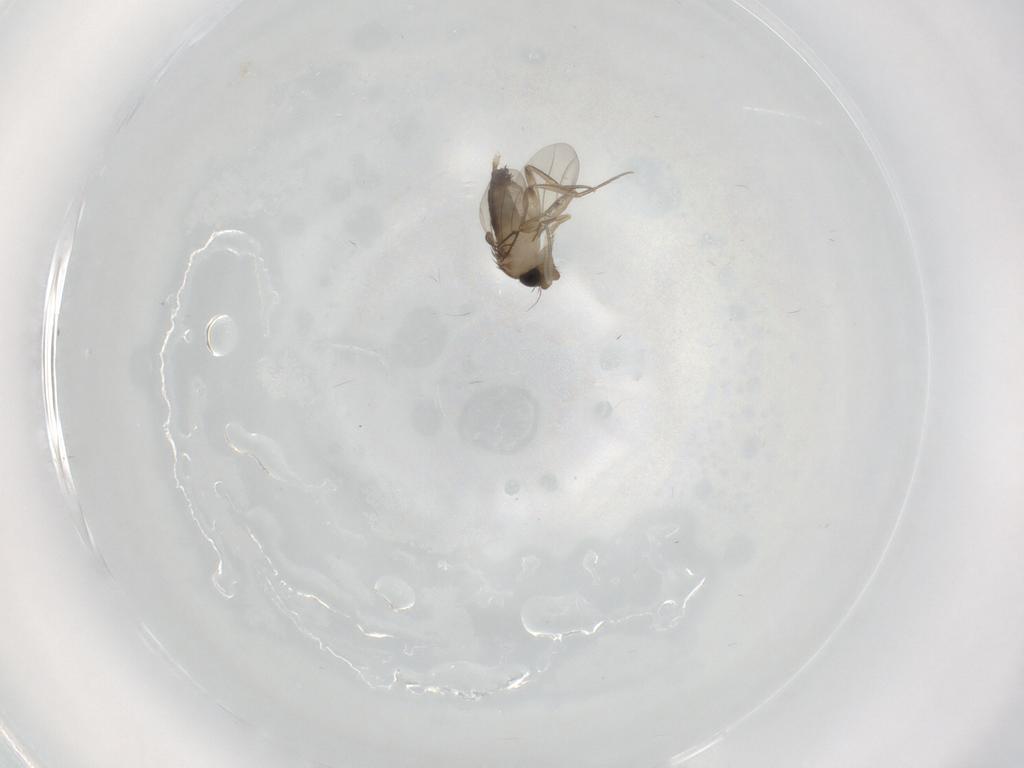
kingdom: Animalia
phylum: Arthropoda
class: Insecta
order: Diptera
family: Phoridae
